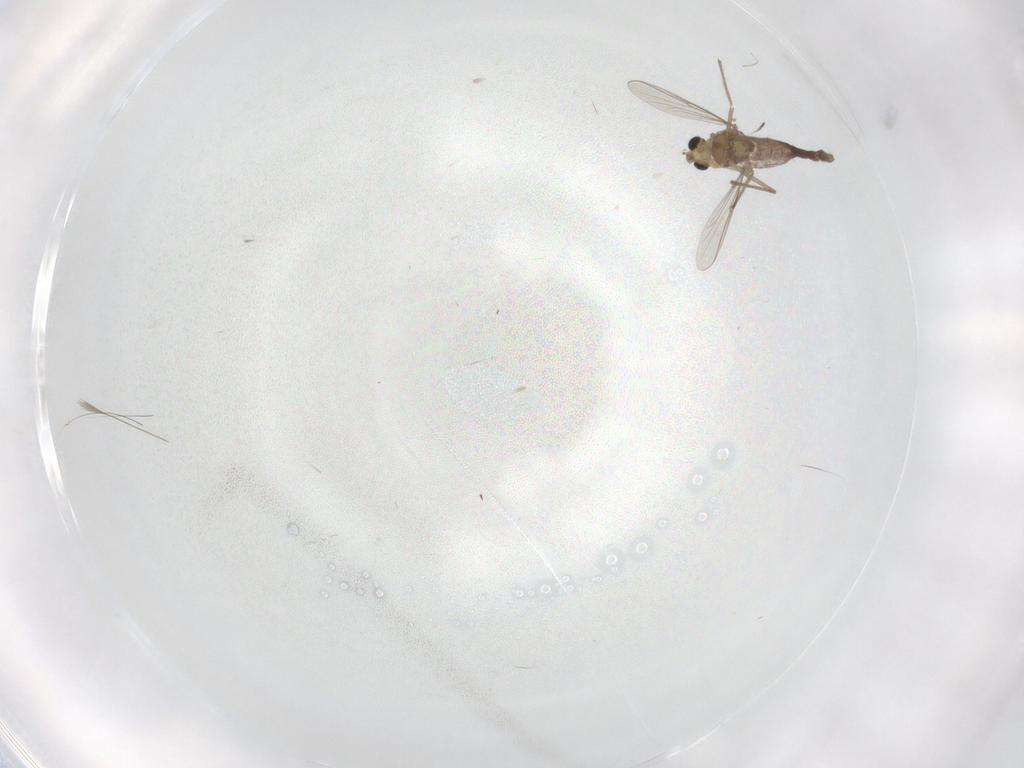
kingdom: Animalia
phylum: Arthropoda
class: Insecta
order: Diptera
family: Chironomidae
